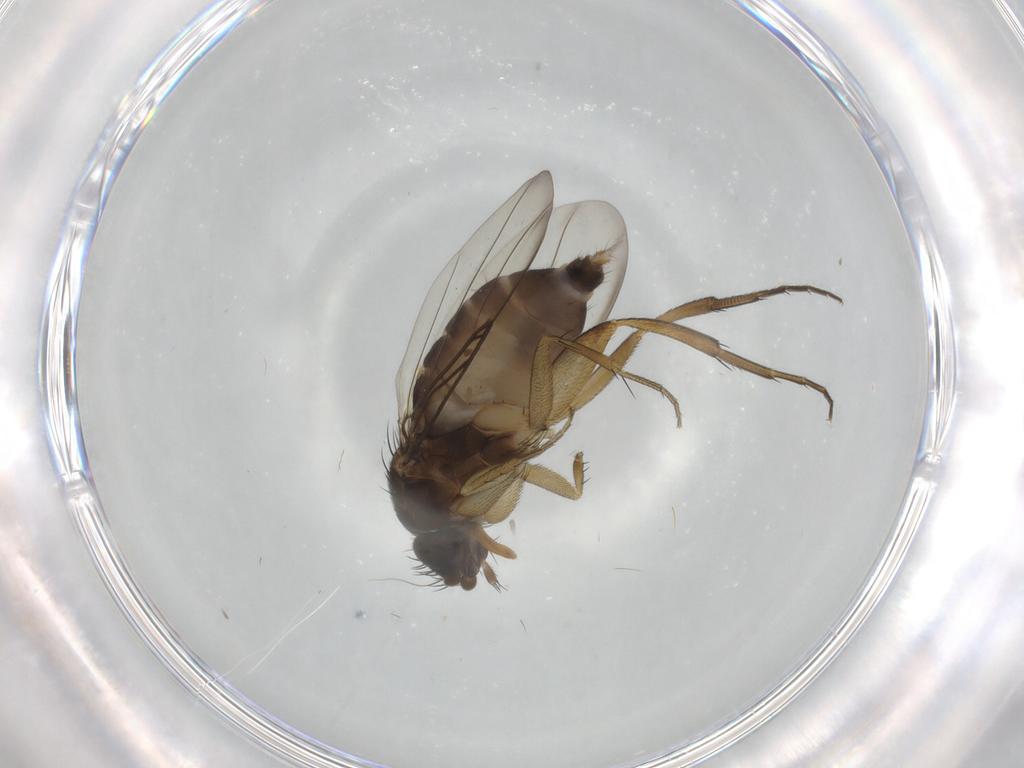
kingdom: Animalia
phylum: Arthropoda
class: Insecta
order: Diptera
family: Phoridae
